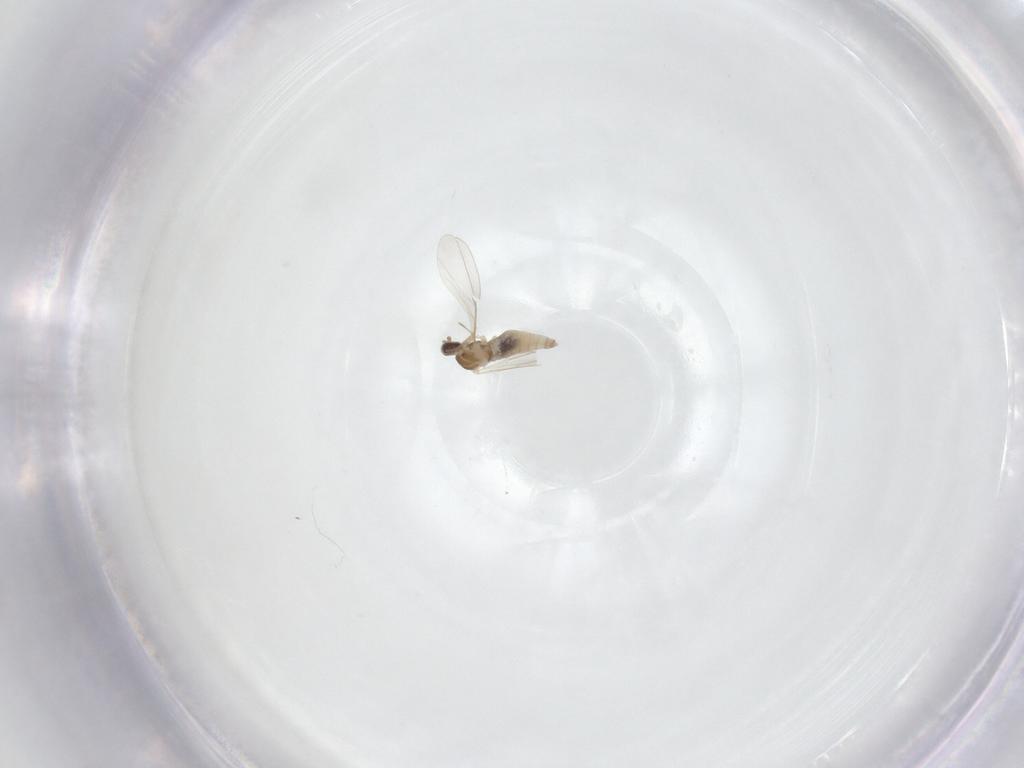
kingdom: Animalia
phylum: Arthropoda
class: Insecta
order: Diptera
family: Cecidomyiidae
